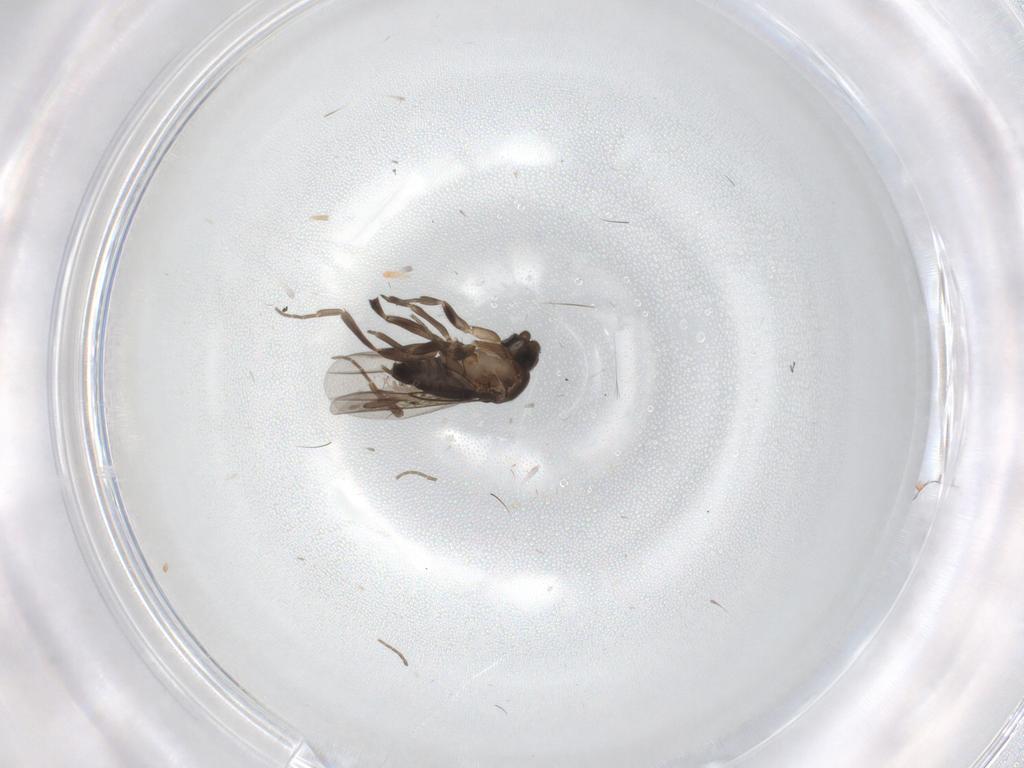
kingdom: Animalia
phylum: Arthropoda
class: Insecta
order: Diptera
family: Phoridae
